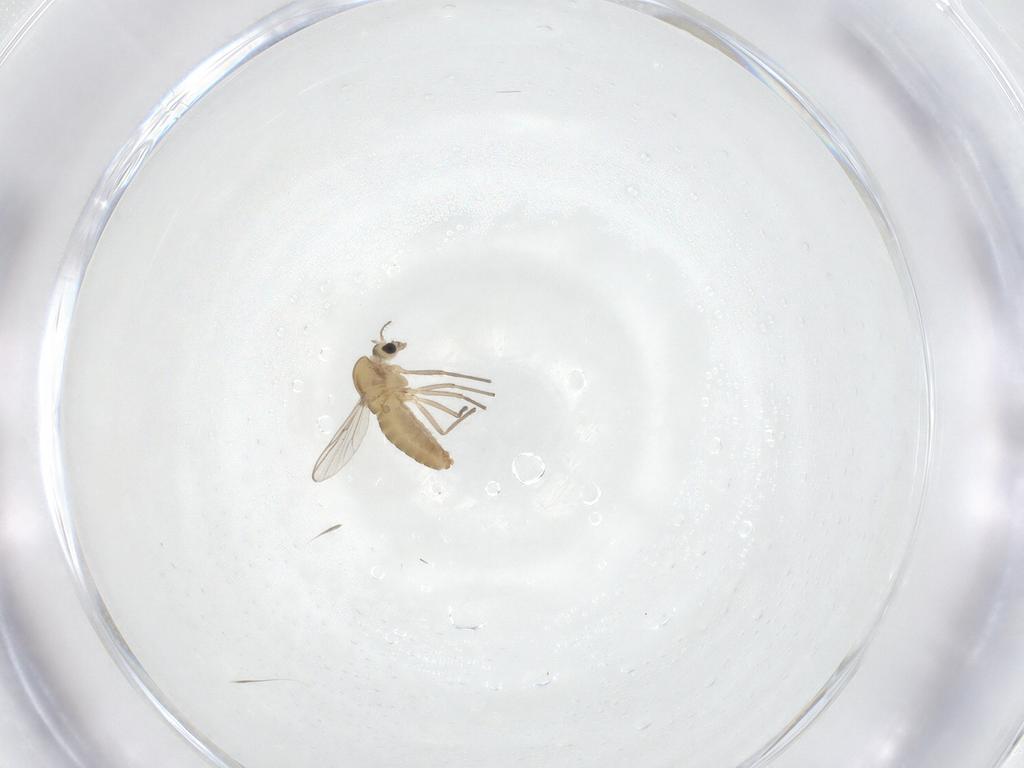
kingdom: Animalia
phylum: Arthropoda
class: Insecta
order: Diptera
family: Chironomidae
